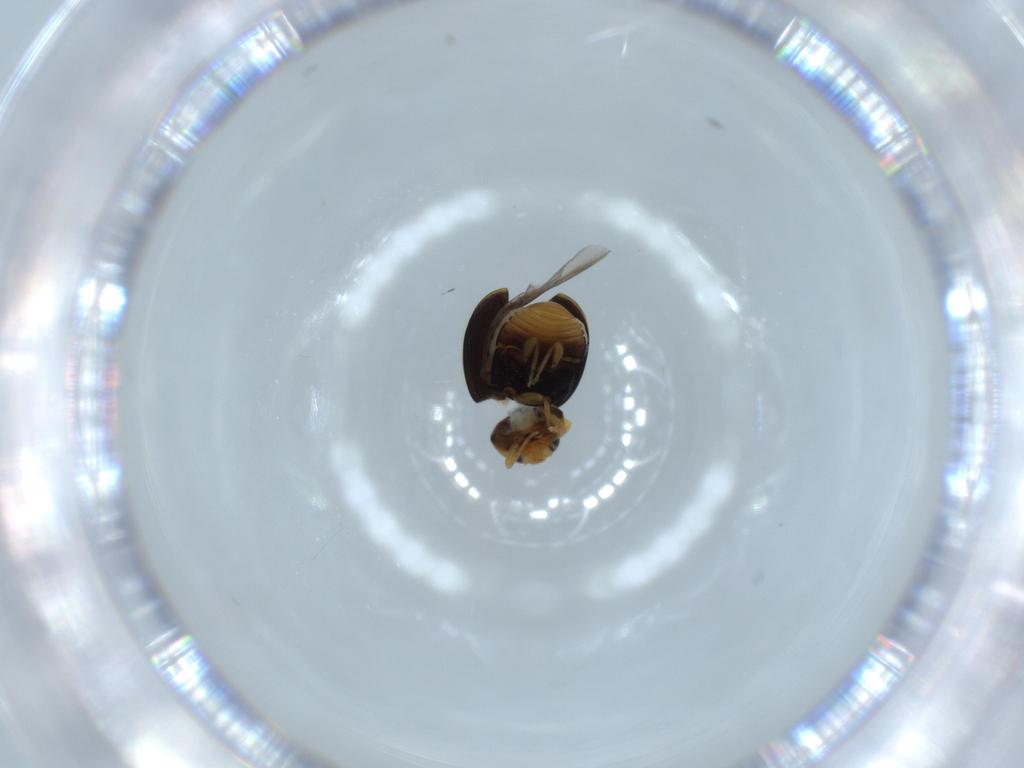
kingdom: Animalia
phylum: Arthropoda
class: Insecta
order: Coleoptera
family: Coccinellidae
